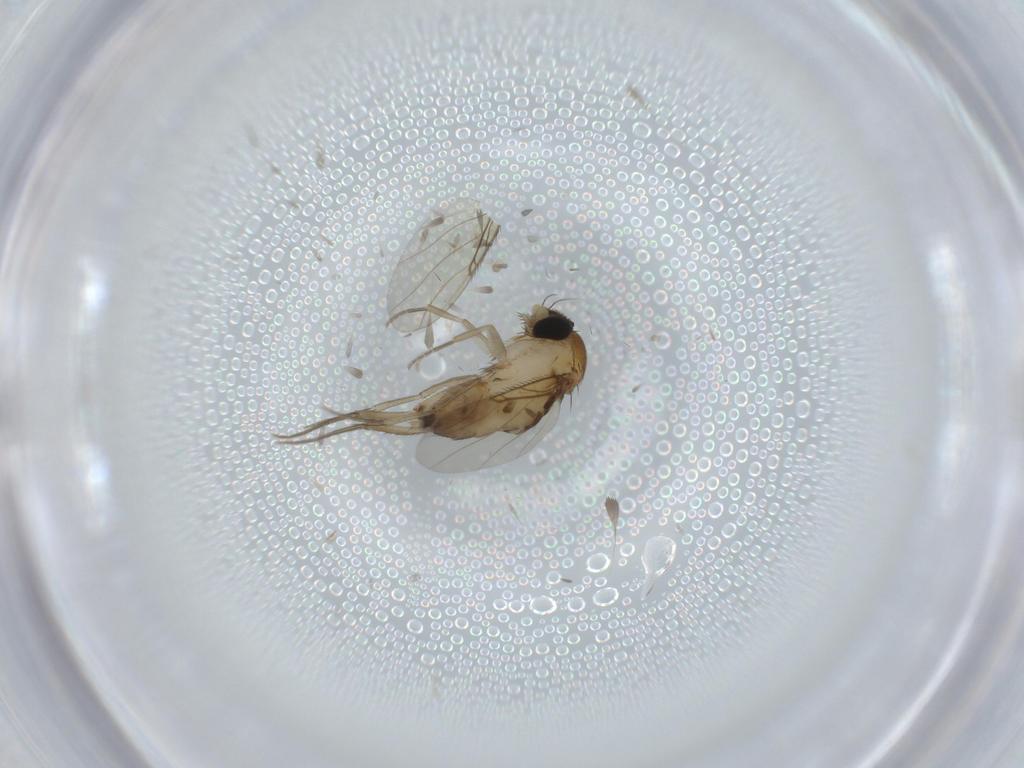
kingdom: Animalia
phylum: Arthropoda
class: Insecta
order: Diptera
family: Phoridae
